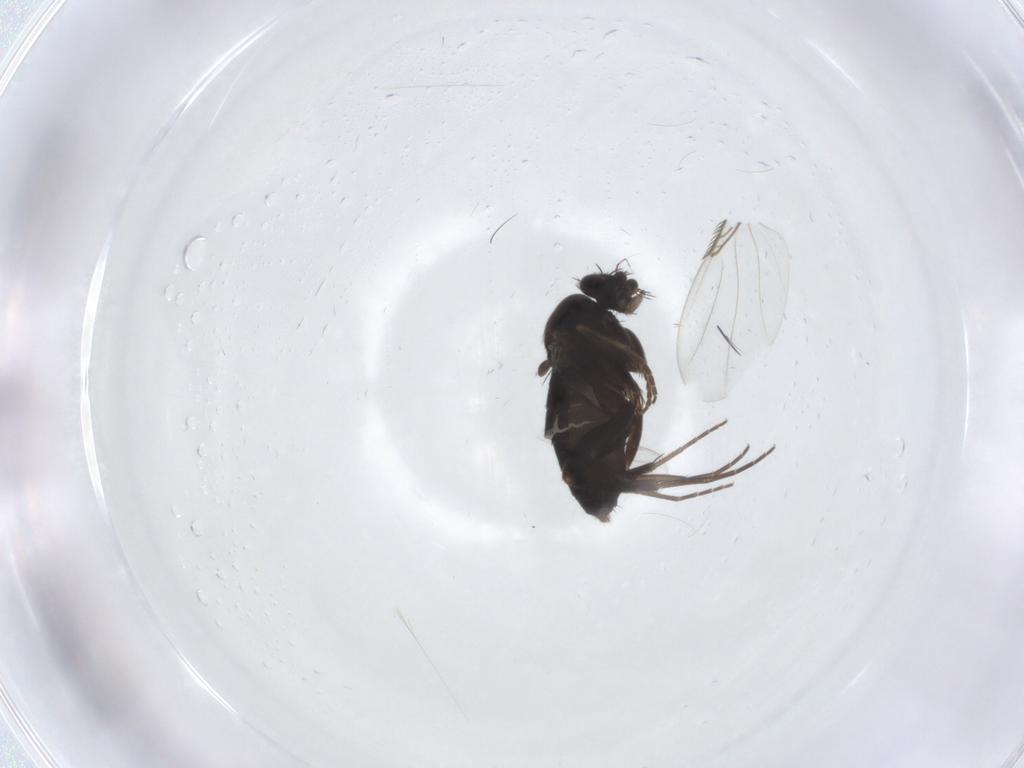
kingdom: Animalia
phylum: Arthropoda
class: Insecta
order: Diptera
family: Phoridae
